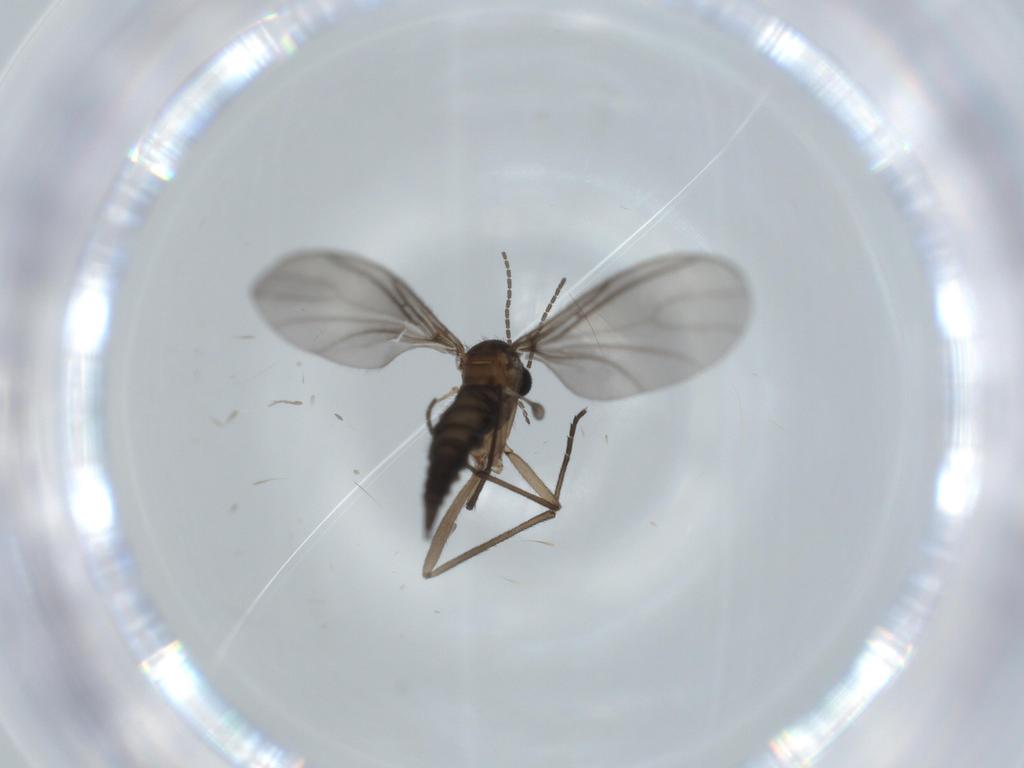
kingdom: Animalia
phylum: Arthropoda
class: Insecta
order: Diptera
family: Sciaridae
